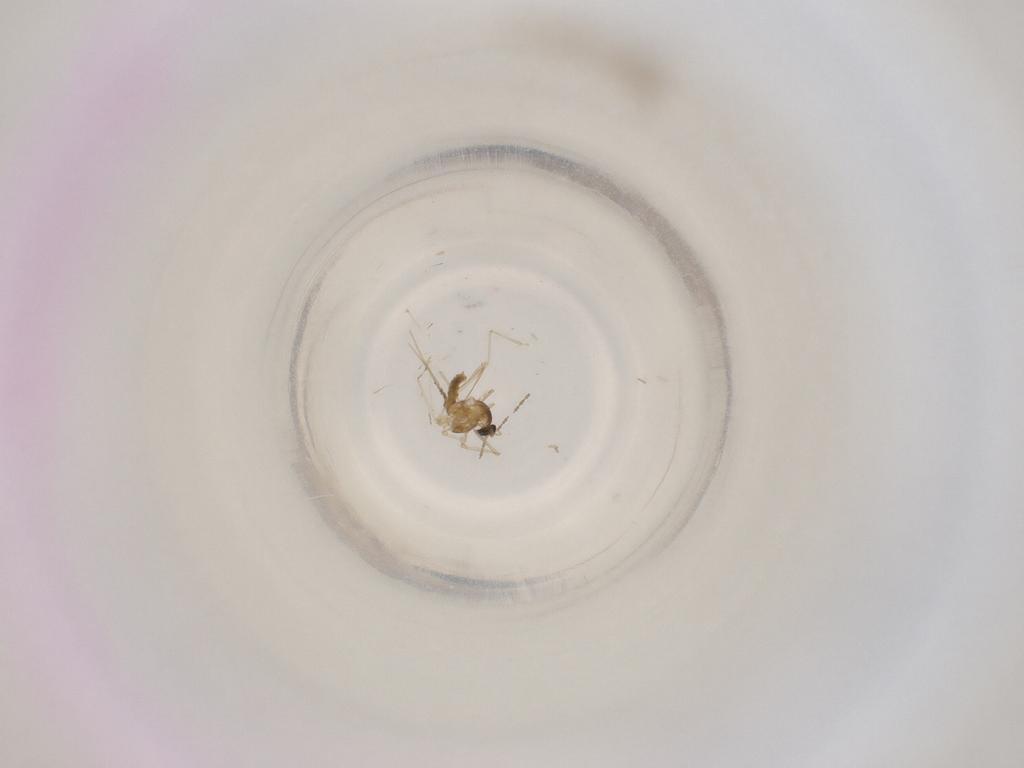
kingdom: Animalia
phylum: Arthropoda
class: Insecta
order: Diptera
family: Cecidomyiidae
